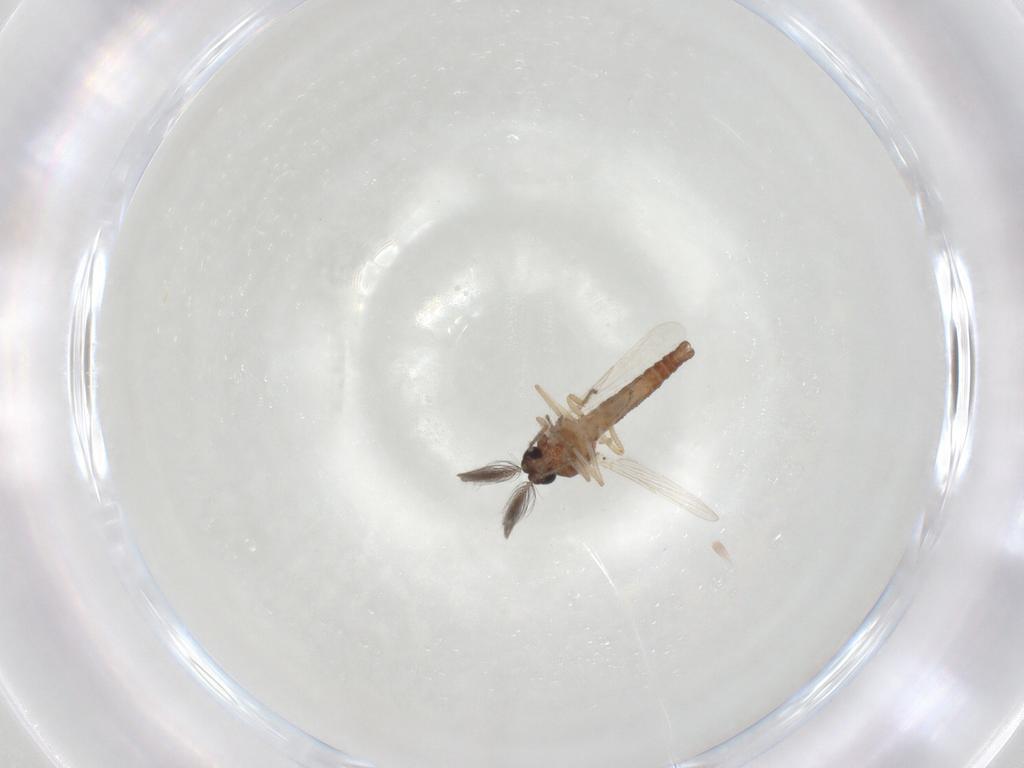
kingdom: Animalia
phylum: Arthropoda
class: Insecta
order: Diptera
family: Ceratopogonidae
